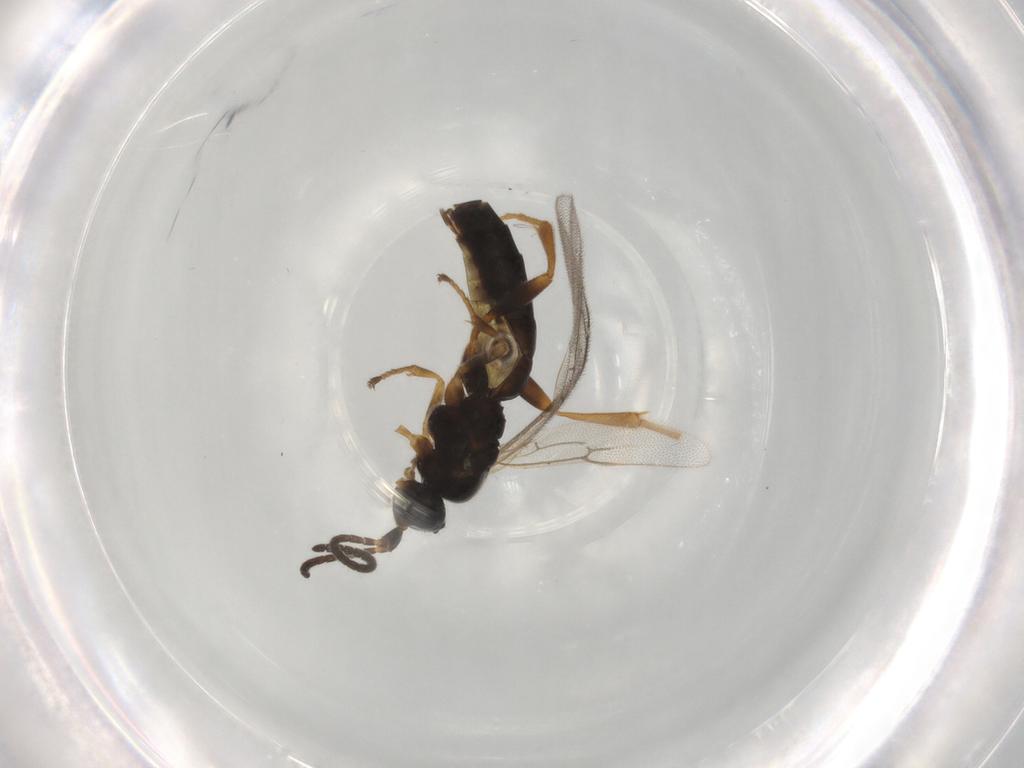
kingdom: Animalia
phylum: Arthropoda
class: Insecta
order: Hymenoptera
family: Ichneumonidae
